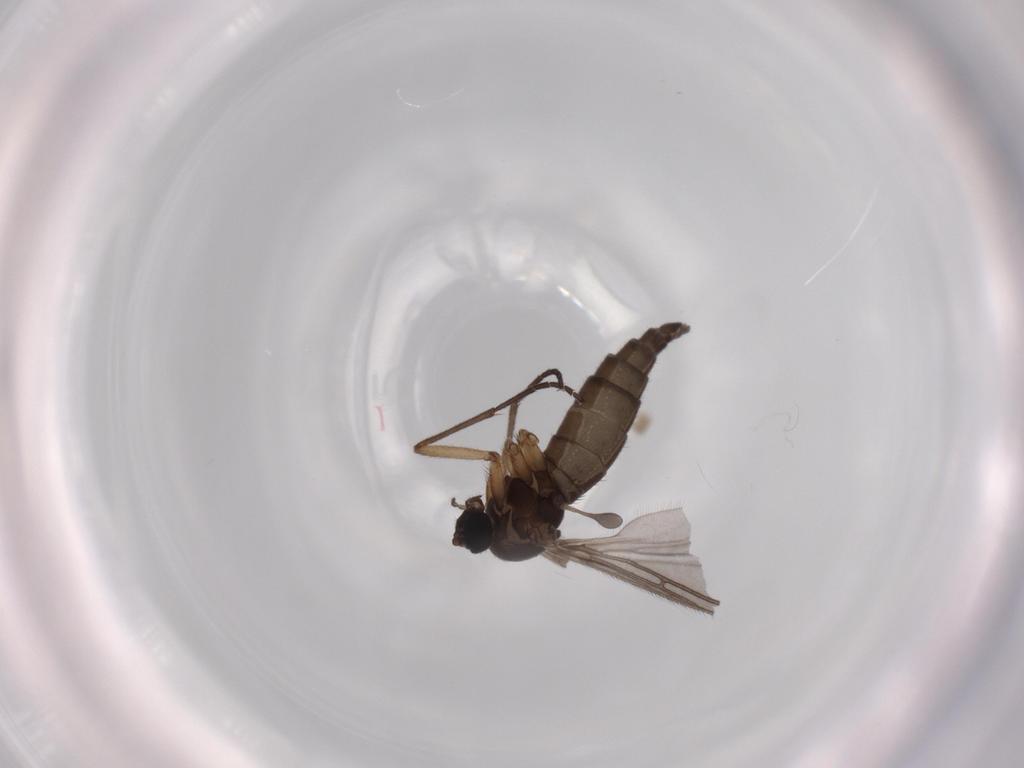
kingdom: Animalia
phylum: Arthropoda
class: Insecta
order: Diptera
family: Sciaridae
